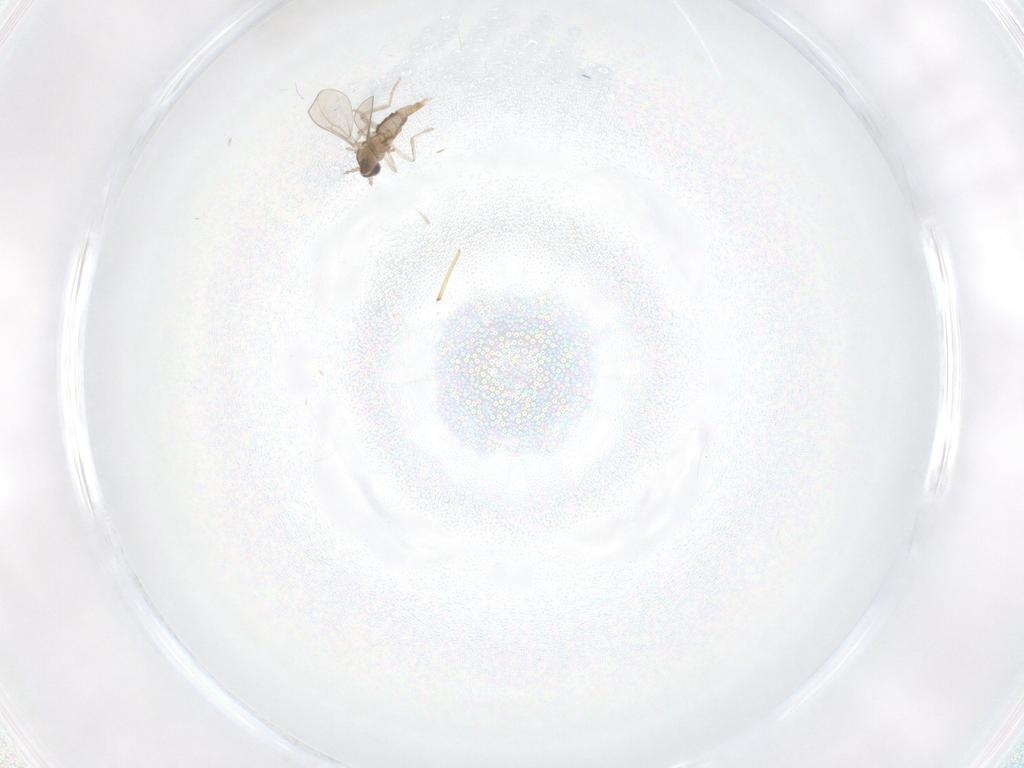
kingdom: Animalia
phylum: Arthropoda
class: Insecta
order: Diptera
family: Cecidomyiidae
